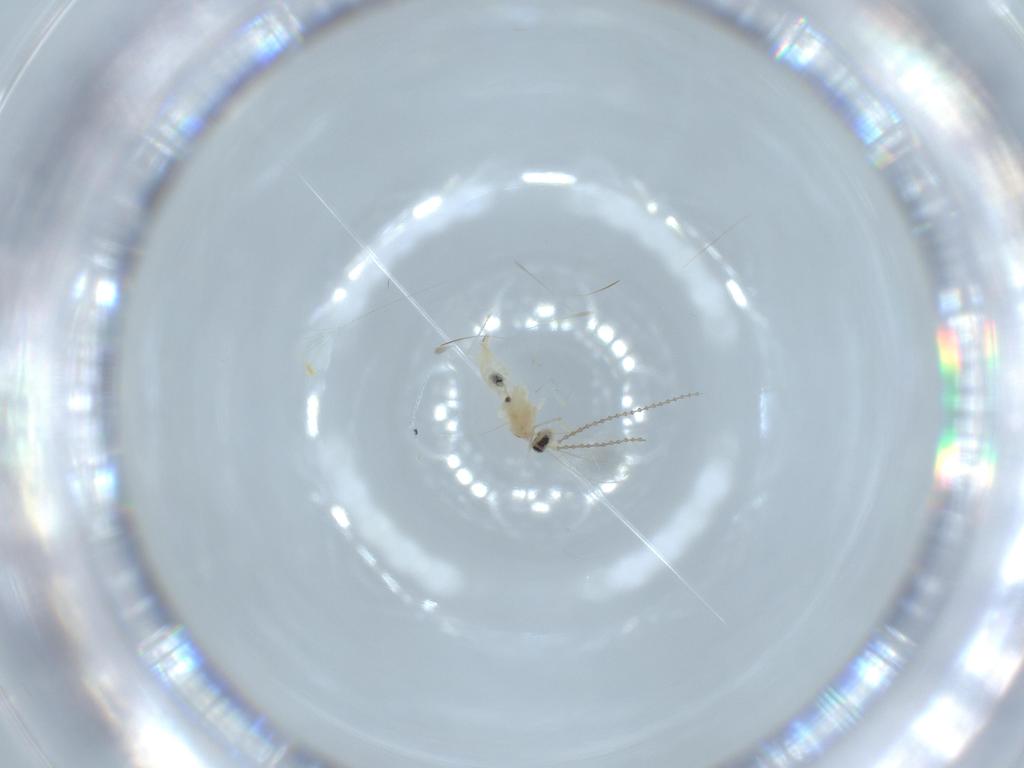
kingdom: Animalia
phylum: Arthropoda
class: Insecta
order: Diptera
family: Cecidomyiidae
